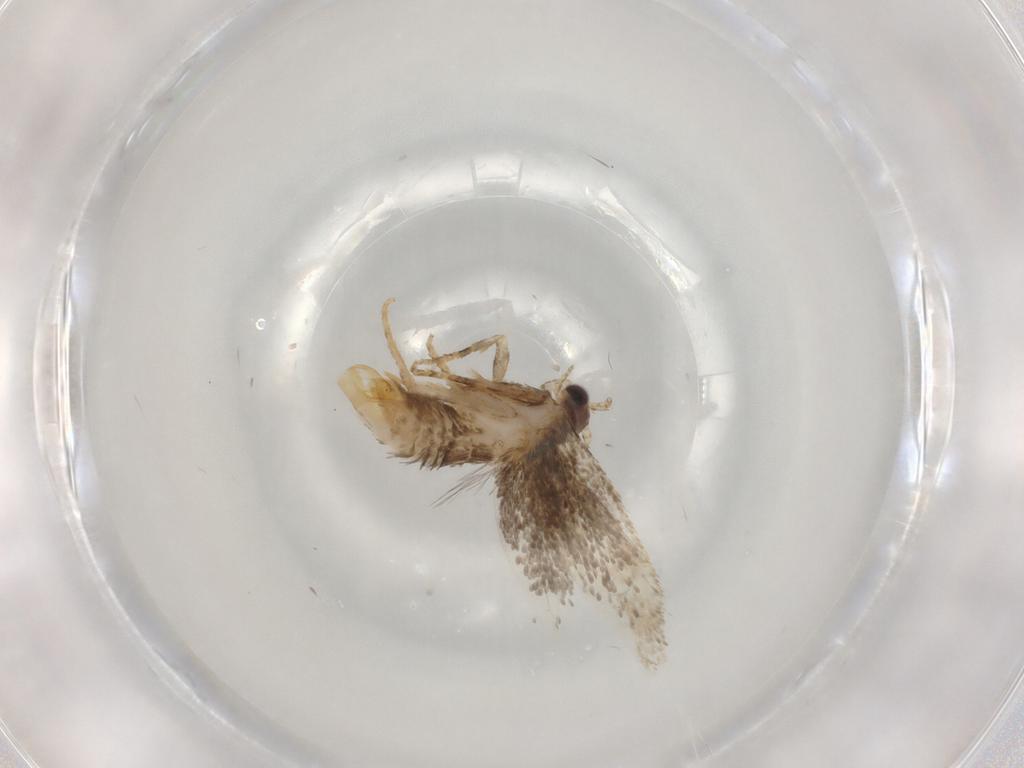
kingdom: Animalia
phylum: Arthropoda
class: Insecta
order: Lepidoptera
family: Tineidae
